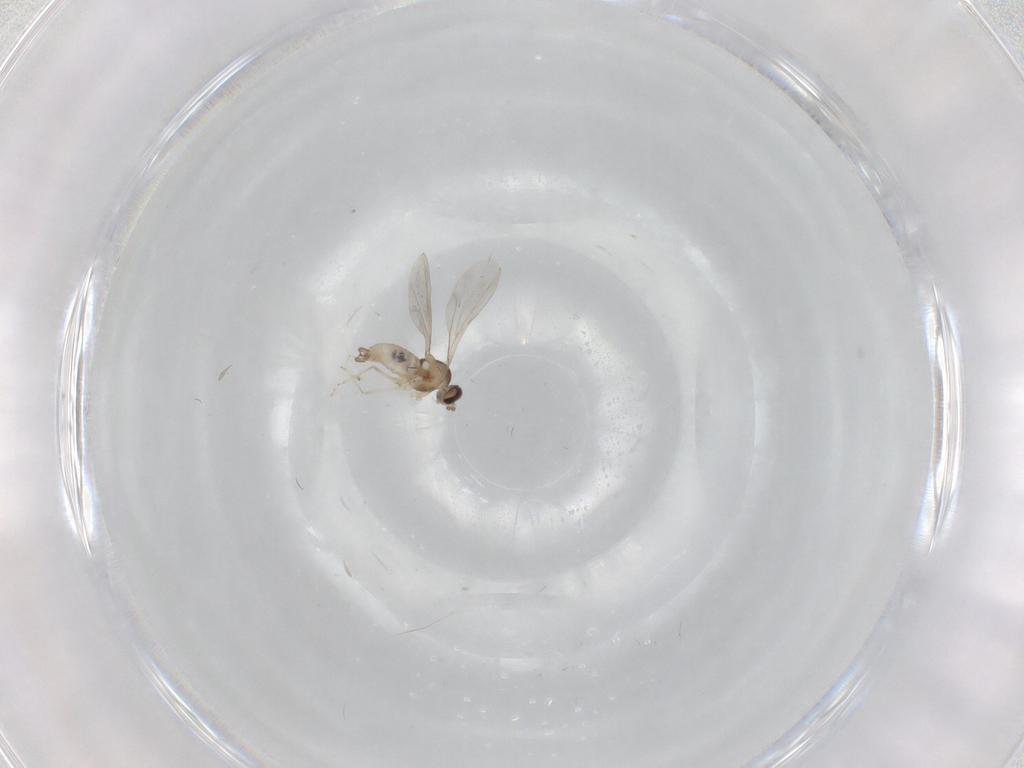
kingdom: Animalia
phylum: Arthropoda
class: Insecta
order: Diptera
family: Cecidomyiidae
